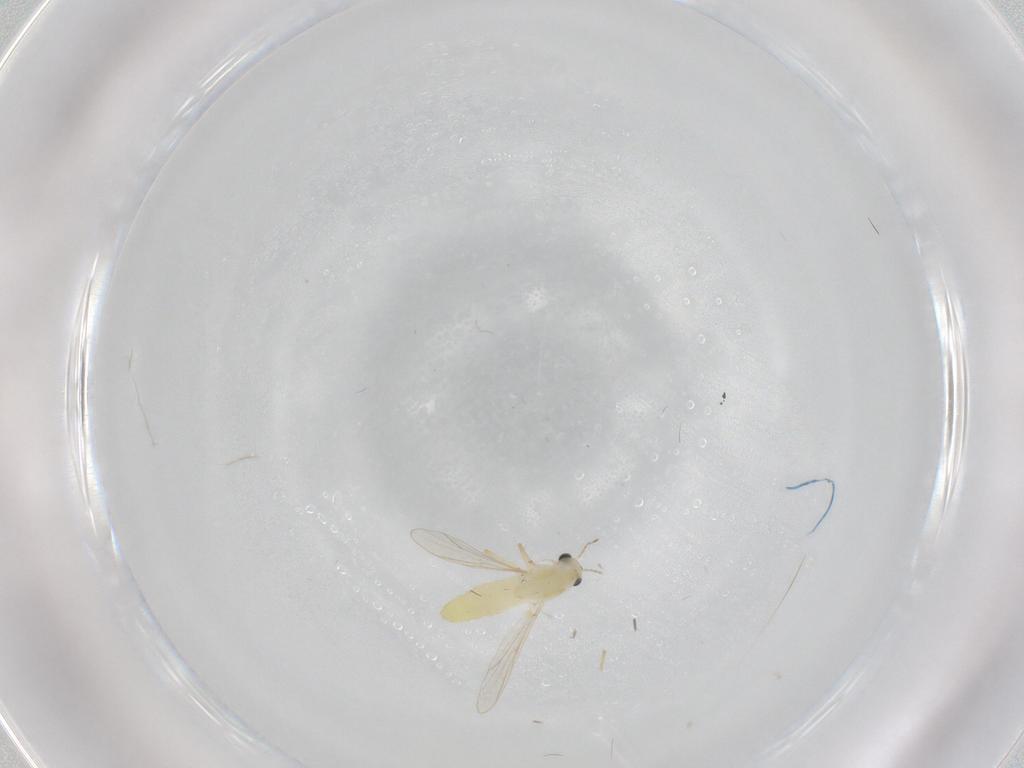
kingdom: Animalia
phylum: Arthropoda
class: Insecta
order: Diptera
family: Chironomidae
